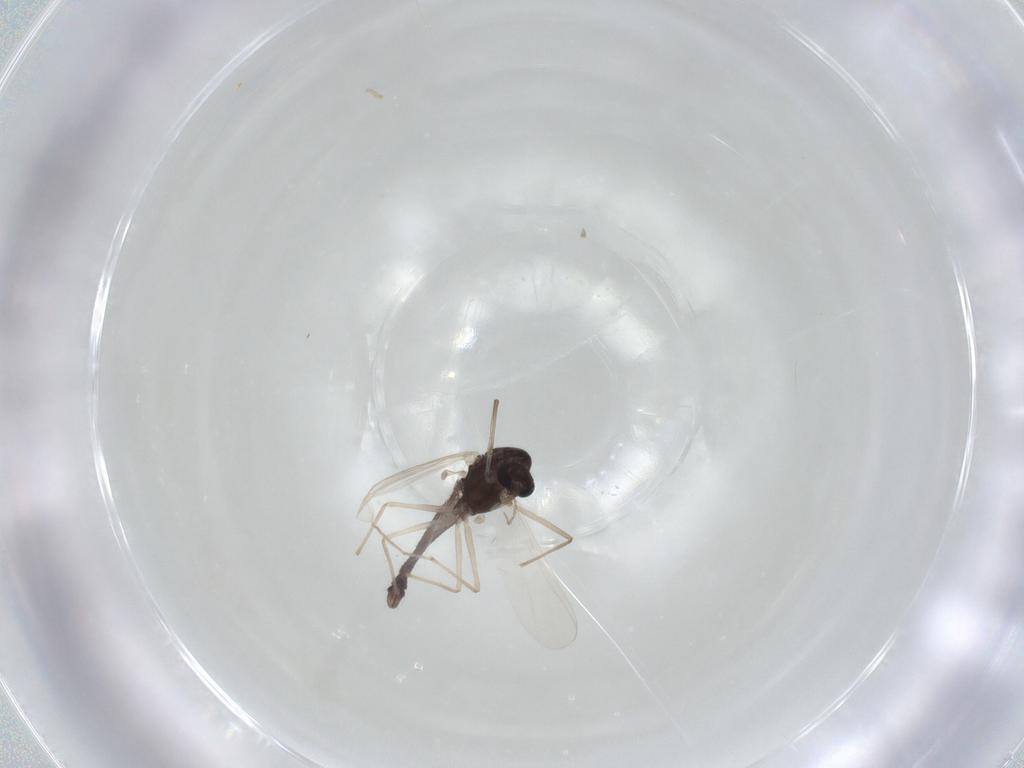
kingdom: Animalia
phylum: Arthropoda
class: Insecta
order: Diptera
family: Chironomidae
